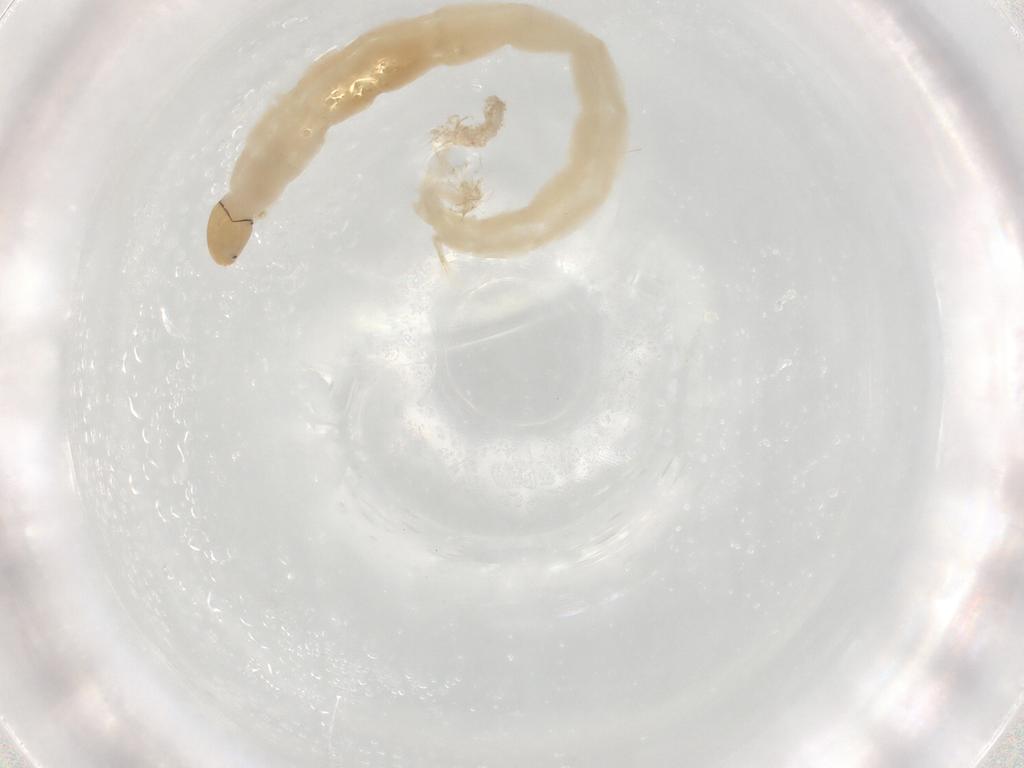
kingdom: Animalia
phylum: Arthropoda
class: Insecta
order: Diptera
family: Chironomidae
